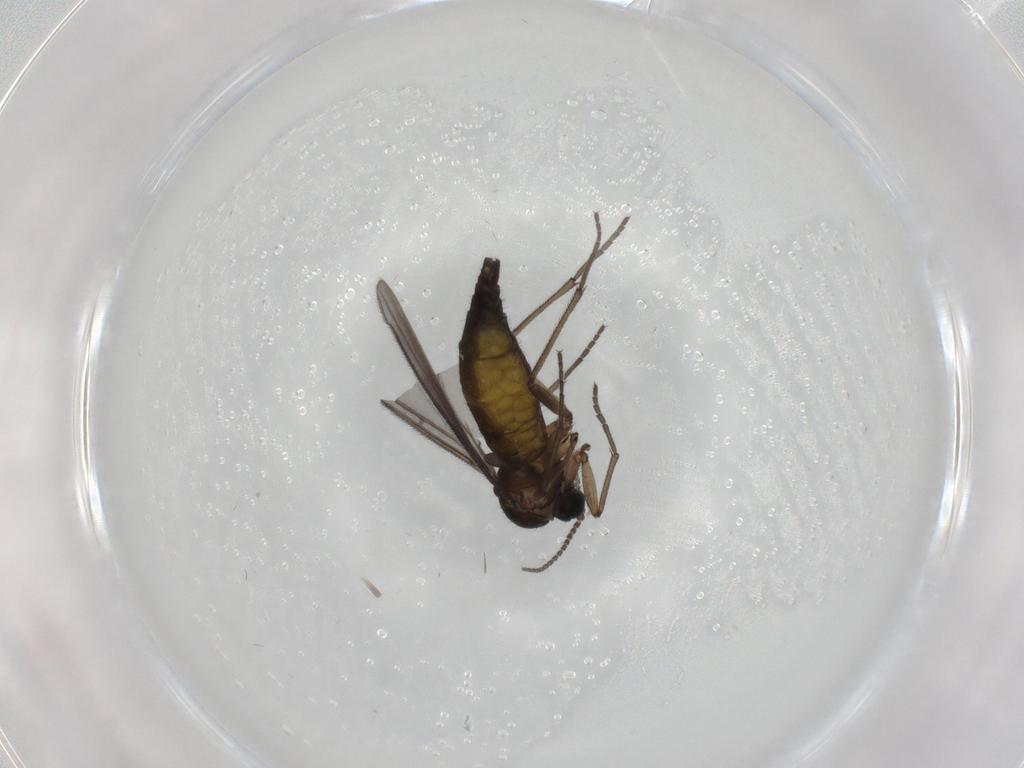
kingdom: Animalia
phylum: Arthropoda
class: Insecta
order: Diptera
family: Sciaridae
